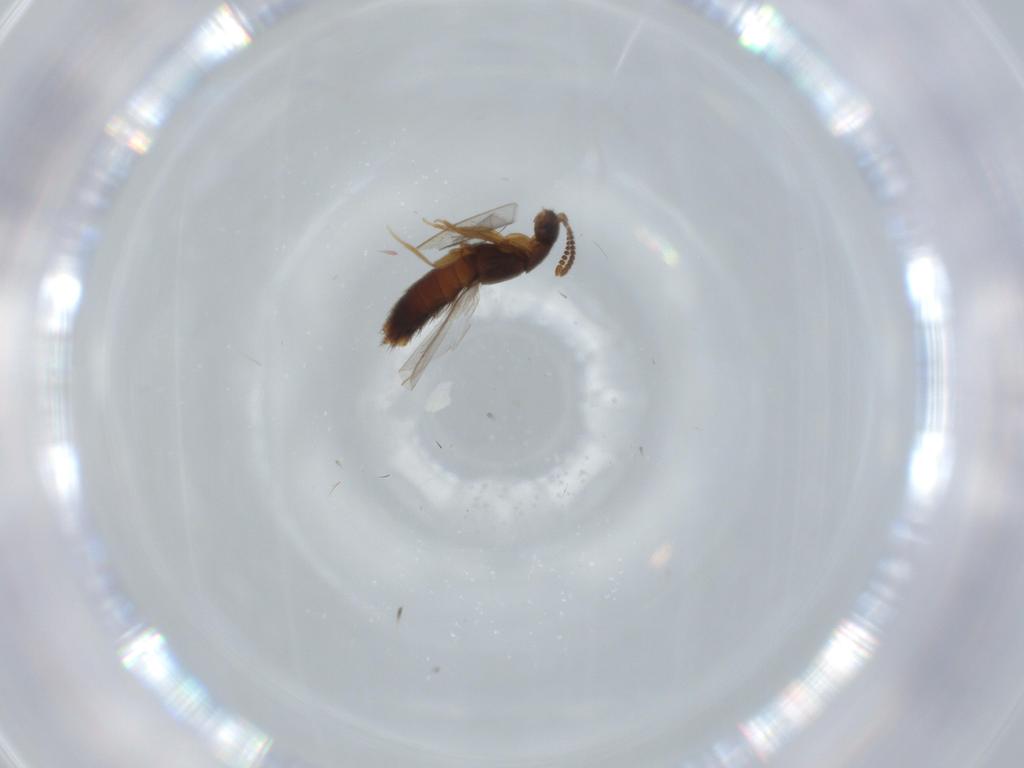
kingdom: Animalia
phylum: Arthropoda
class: Insecta
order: Coleoptera
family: Staphylinidae
